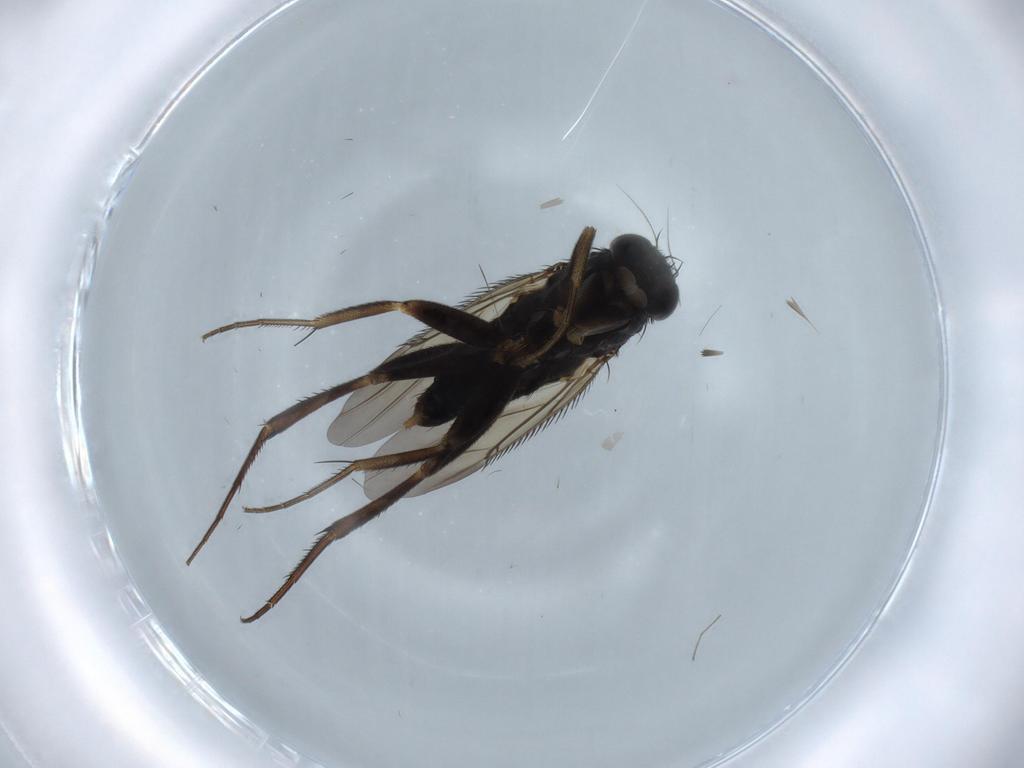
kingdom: Animalia
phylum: Arthropoda
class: Insecta
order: Diptera
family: Phoridae
